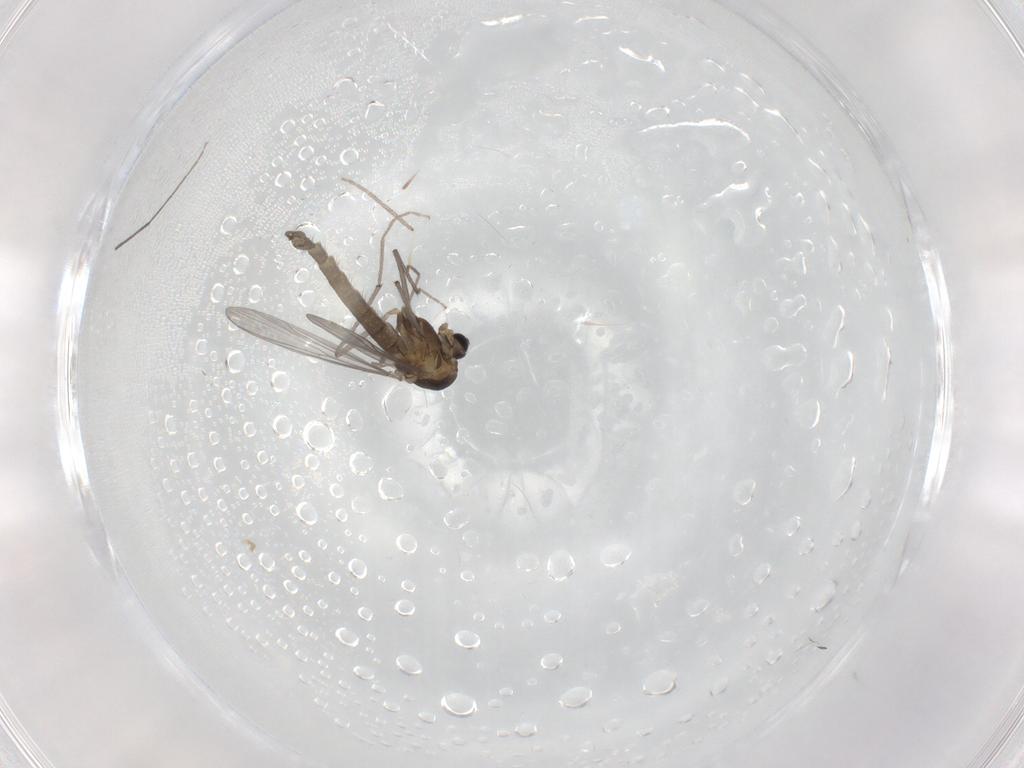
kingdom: Animalia
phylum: Arthropoda
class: Insecta
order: Diptera
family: Chironomidae
